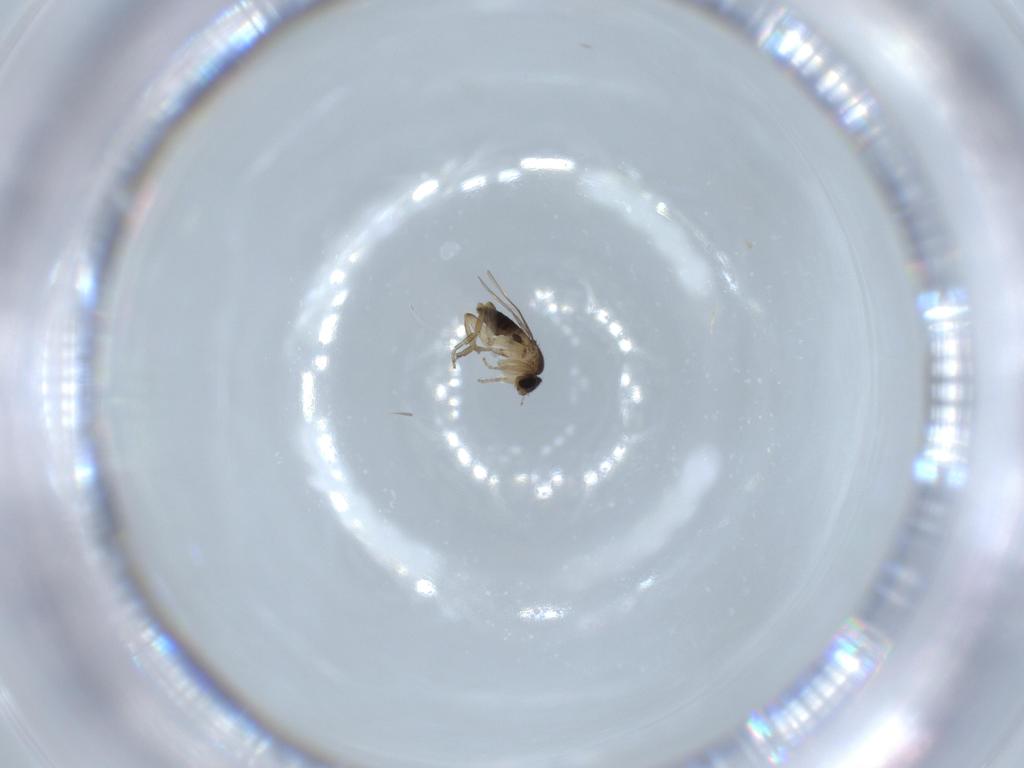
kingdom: Animalia
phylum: Arthropoda
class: Insecta
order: Diptera
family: Phoridae
